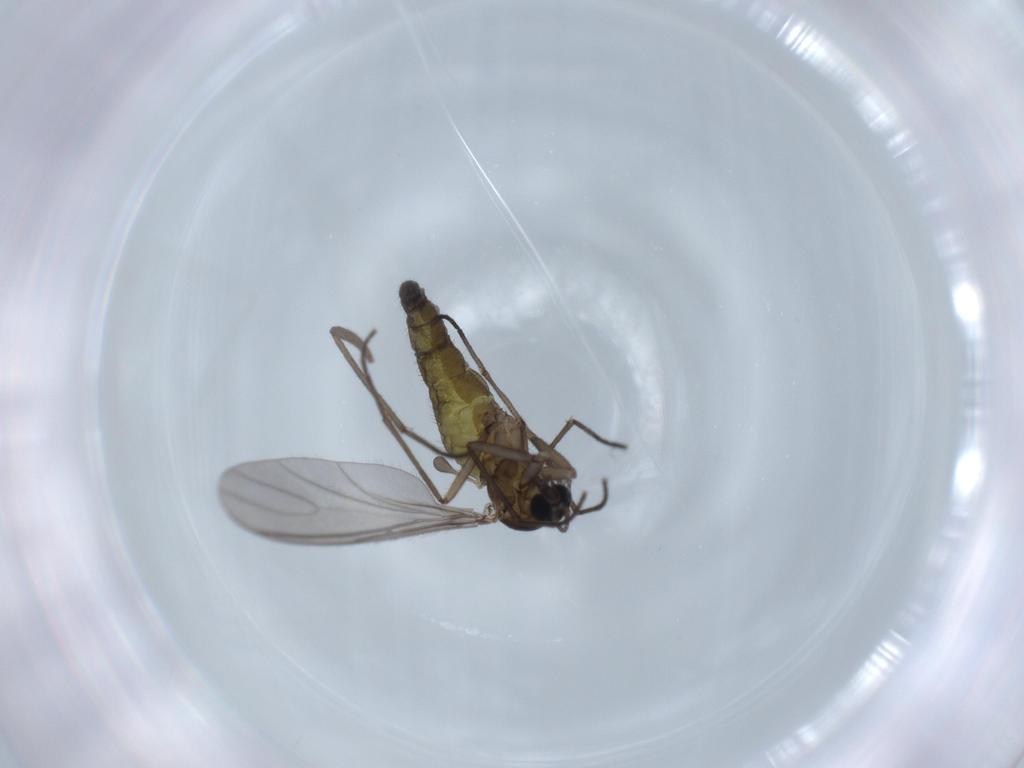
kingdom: Animalia
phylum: Arthropoda
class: Insecta
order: Diptera
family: Sciaridae
